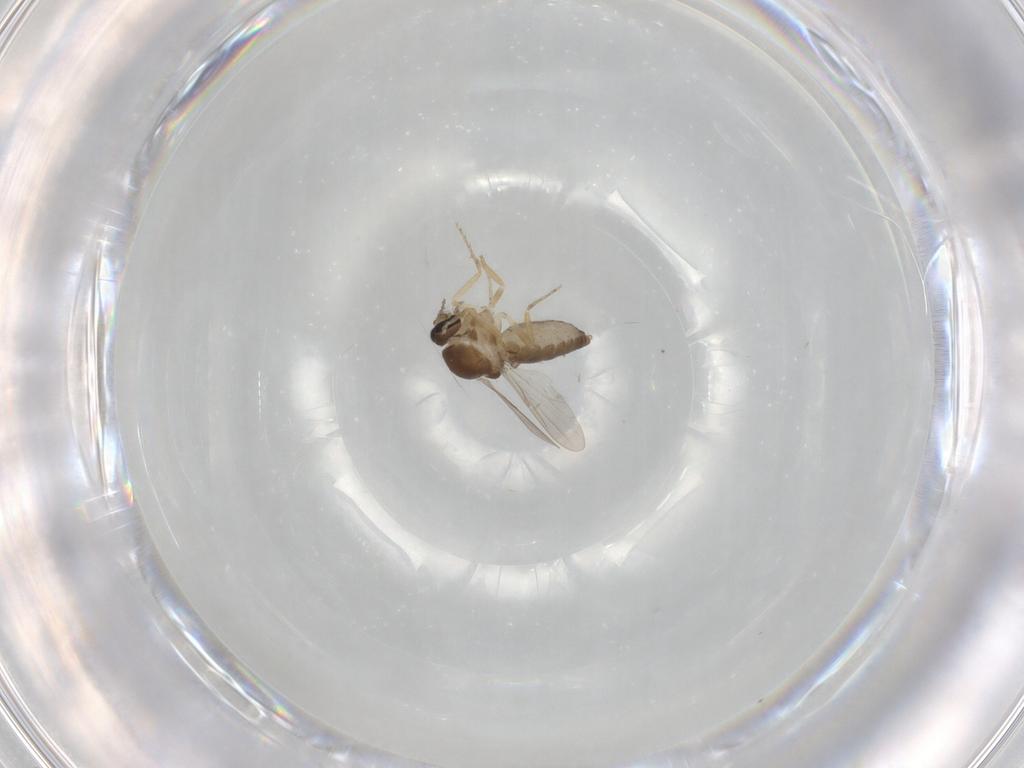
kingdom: Animalia
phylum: Arthropoda
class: Insecta
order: Diptera
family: Ceratopogonidae
